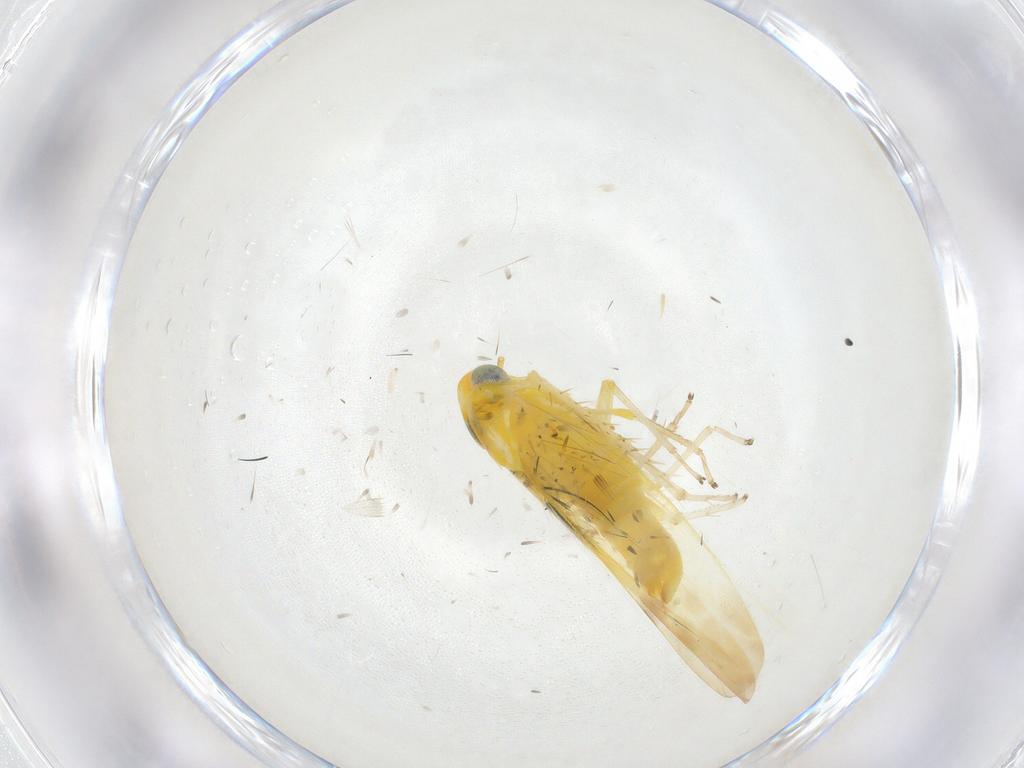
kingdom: Animalia
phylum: Arthropoda
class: Insecta
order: Hemiptera
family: Cicadellidae
